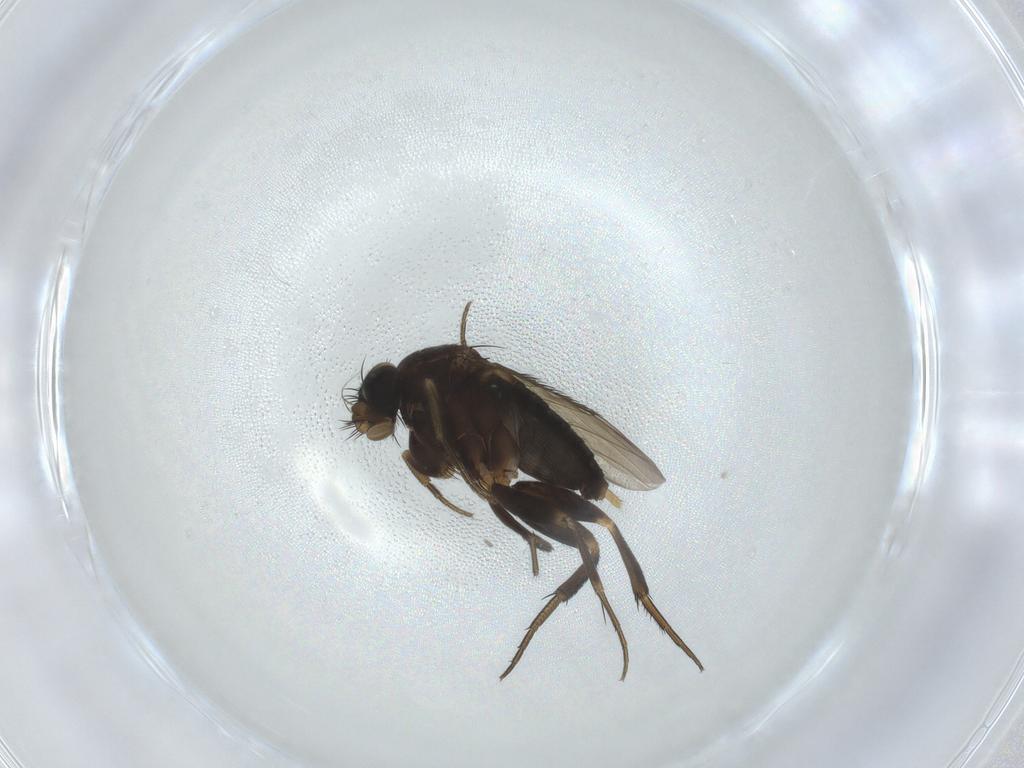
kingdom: Animalia
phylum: Arthropoda
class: Insecta
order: Diptera
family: Phoridae
